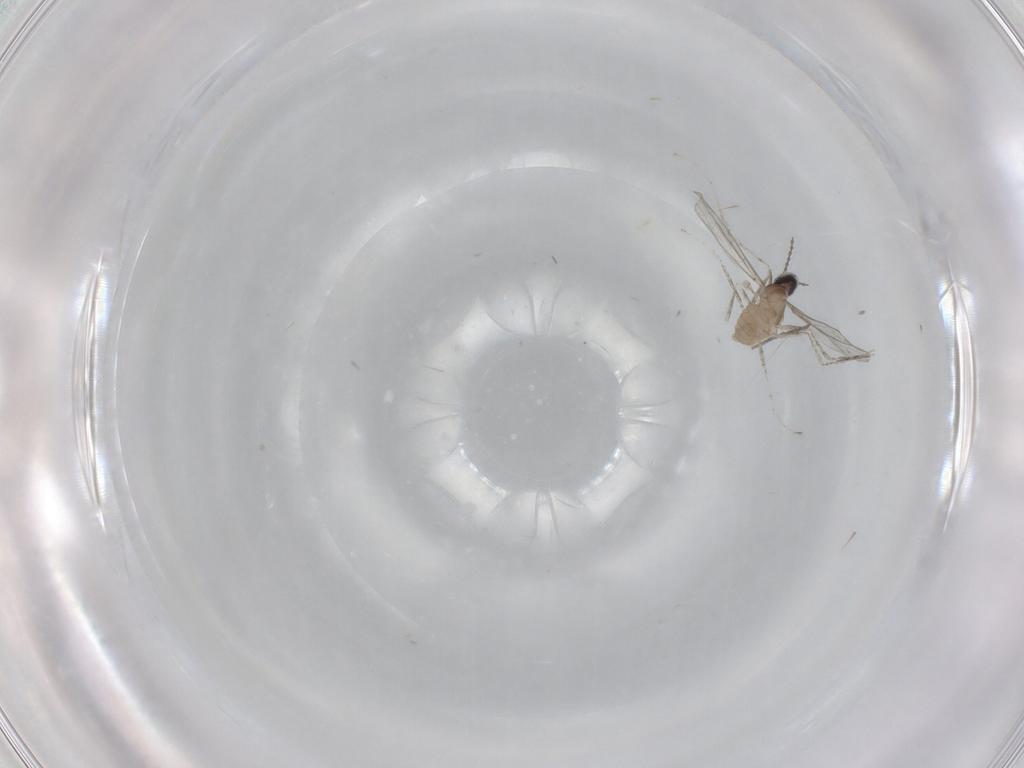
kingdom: Animalia
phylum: Arthropoda
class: Insecta
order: Diptera
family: Cecidomyiidae
